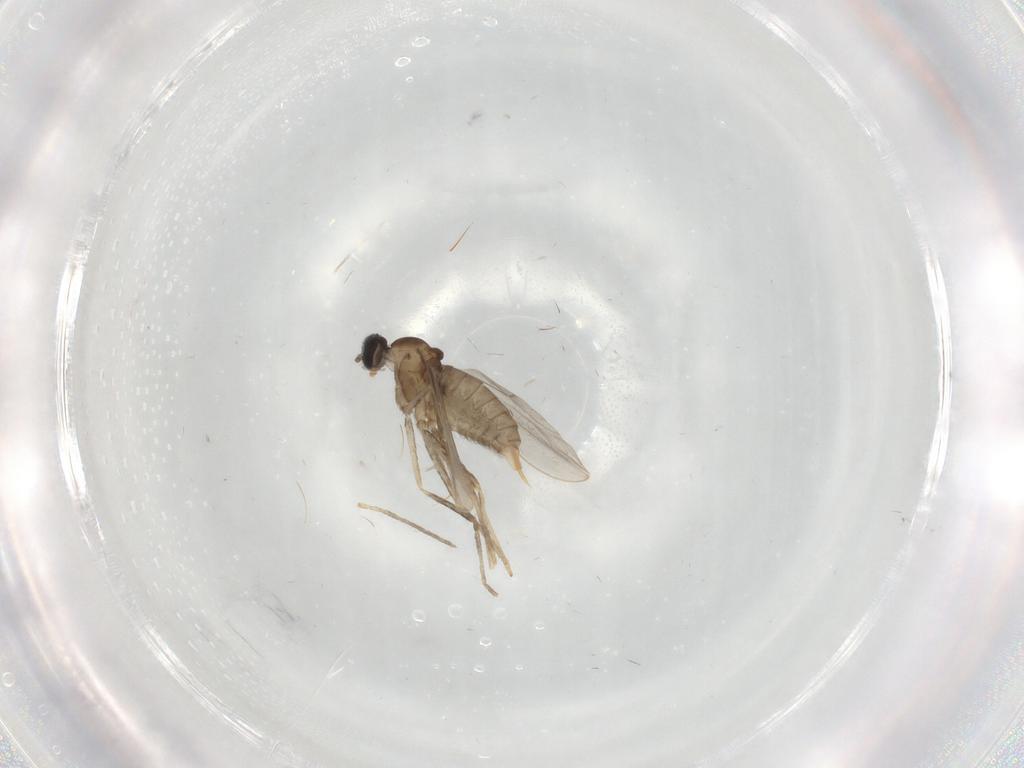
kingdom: Animalia
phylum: Arthropoda
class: Insecta
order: Diptera
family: Cecidomyiidae
